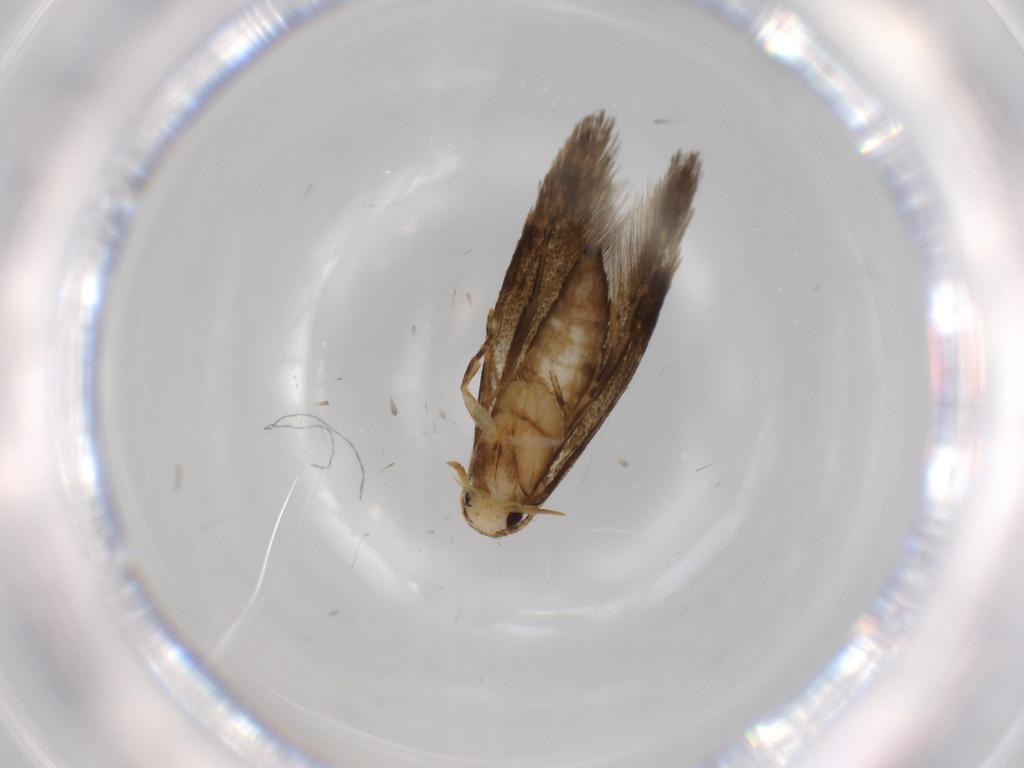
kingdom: Animalia
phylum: Arthropoda
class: Insecta
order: Lepidoptera
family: Tineidae
